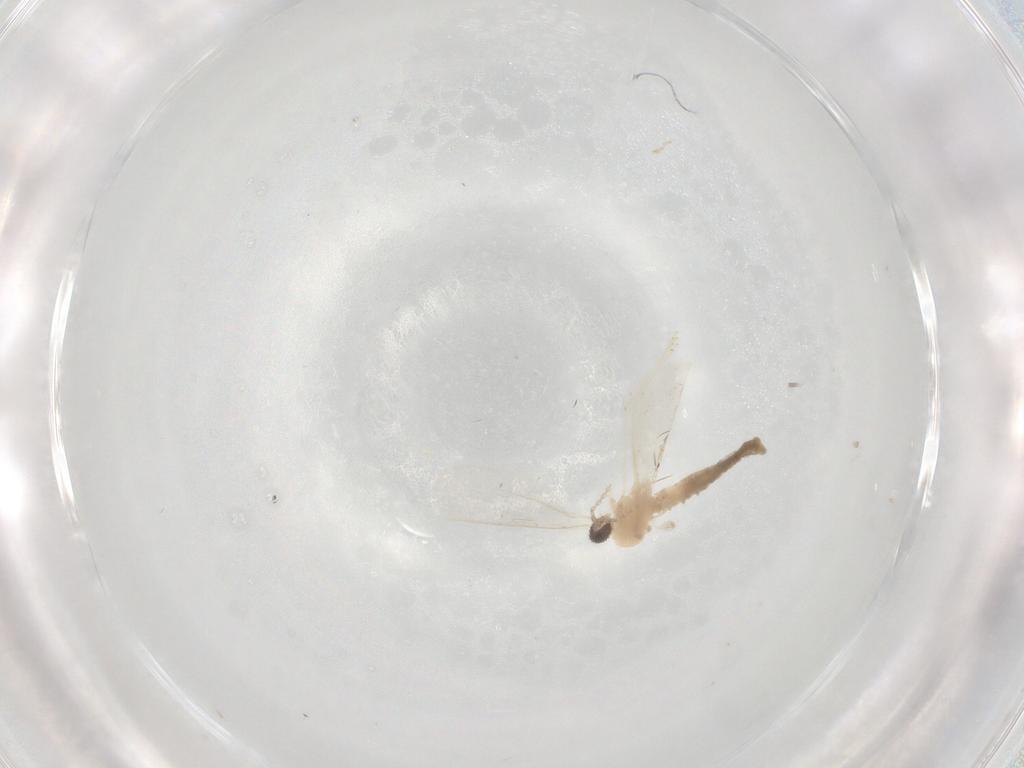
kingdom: Animalia
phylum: Arthropoda
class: Insecta
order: Diptera
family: Cecidomyiidae
